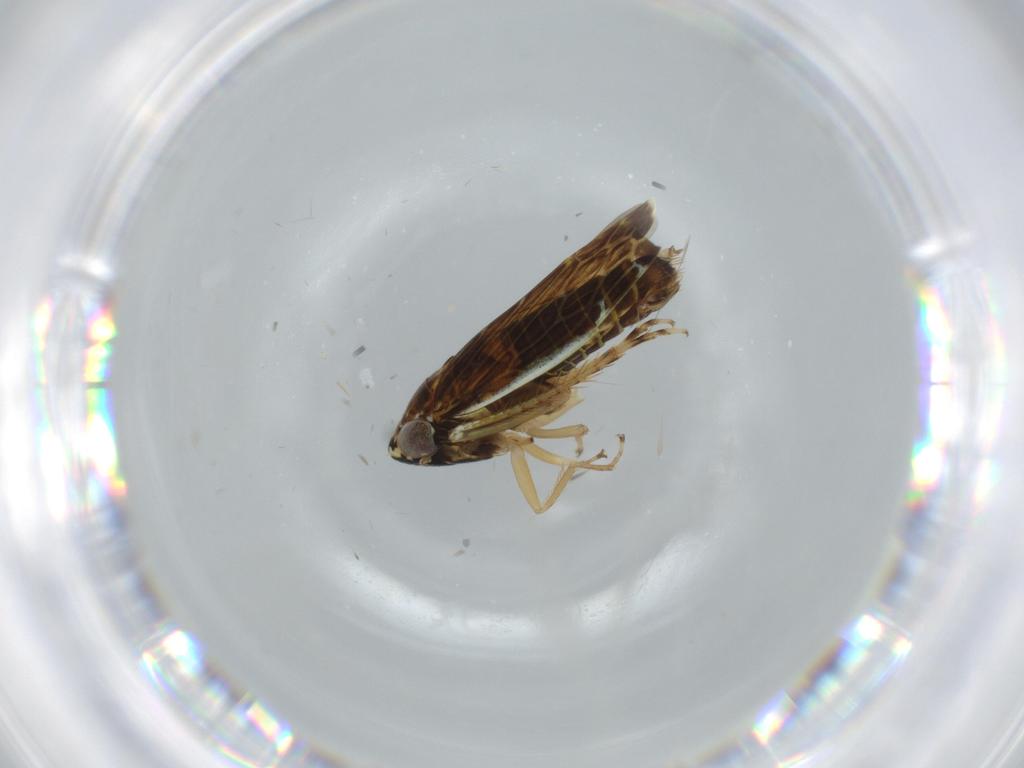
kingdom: Animalia
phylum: Arthropoda
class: Insecta
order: Hemiptera
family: Cicadellidae
